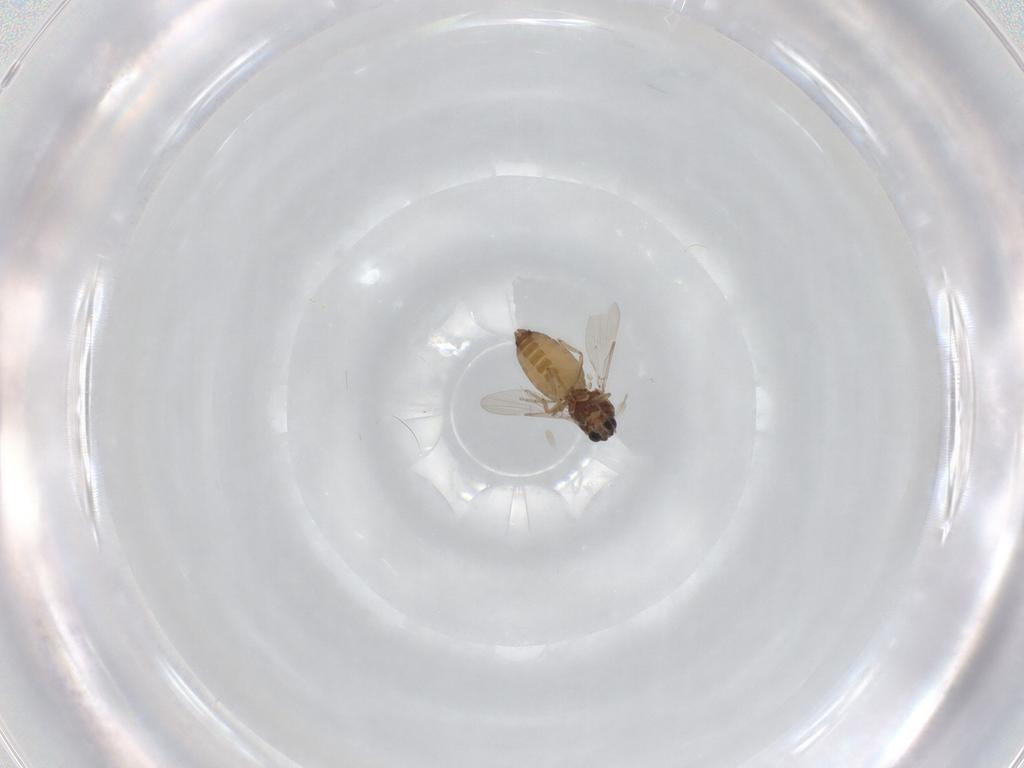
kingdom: Animalia
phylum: Arthropoda
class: Insecta
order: Diptera
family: Ceratopogonidae
